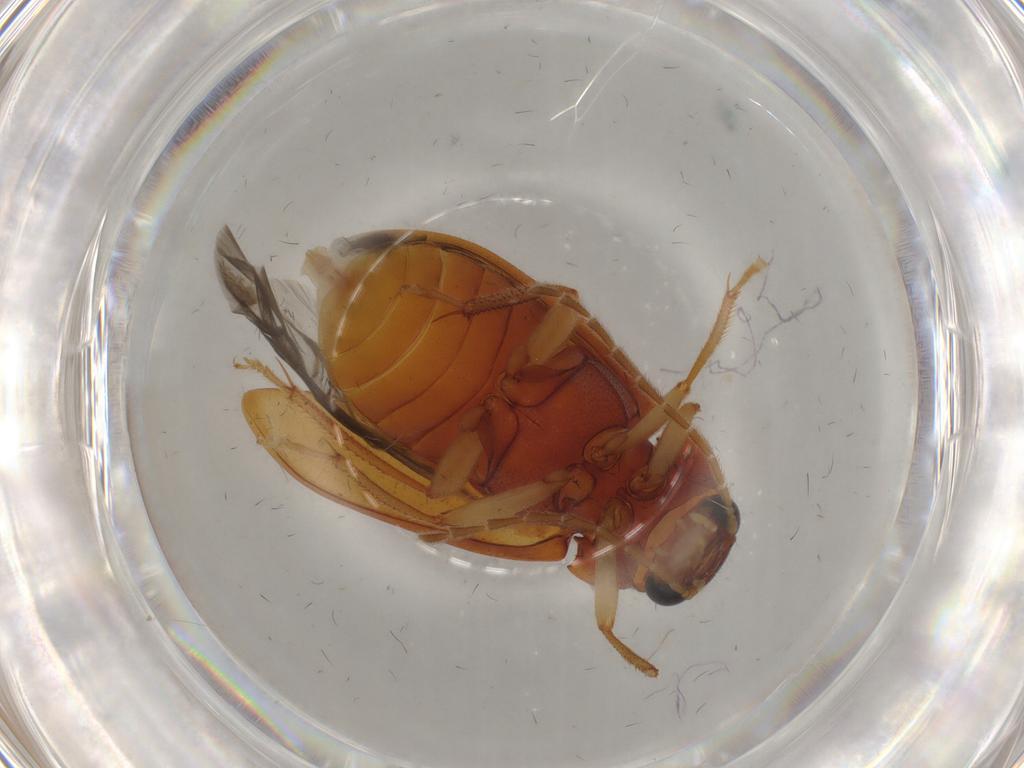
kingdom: Animalia
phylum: Arthropoda
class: Insecta
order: Coleoptera
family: Ptilodactylidae
